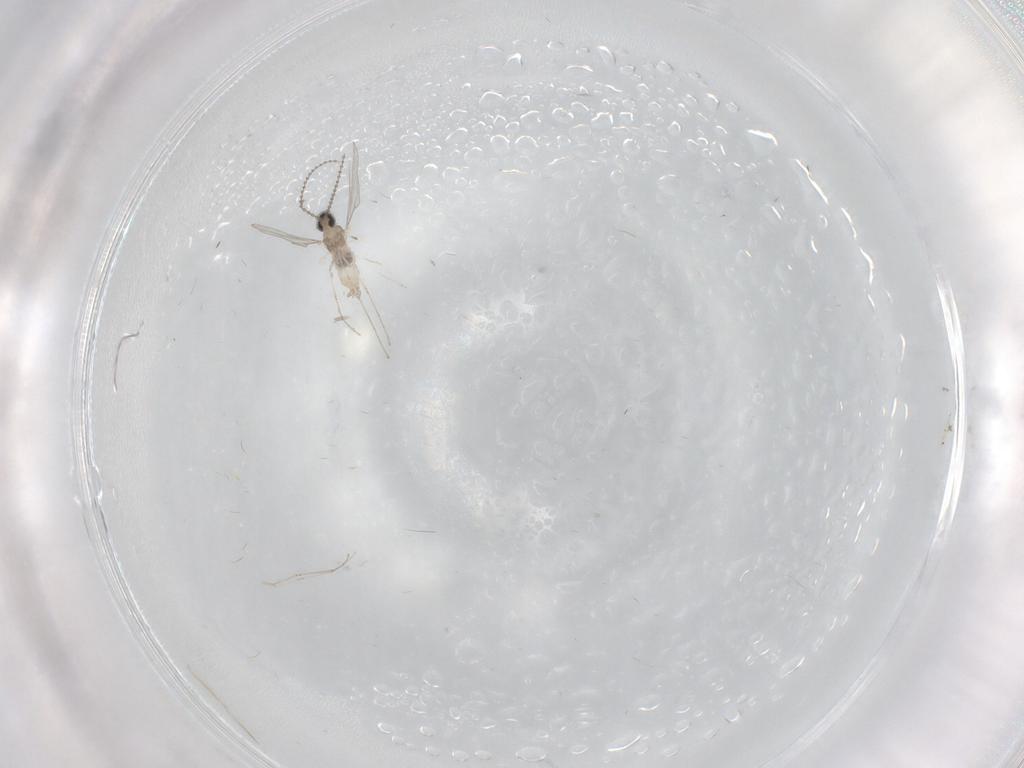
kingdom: Animalia
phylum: Arthropoda
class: Insecta
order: Diptera
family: Cecidomyiidae
